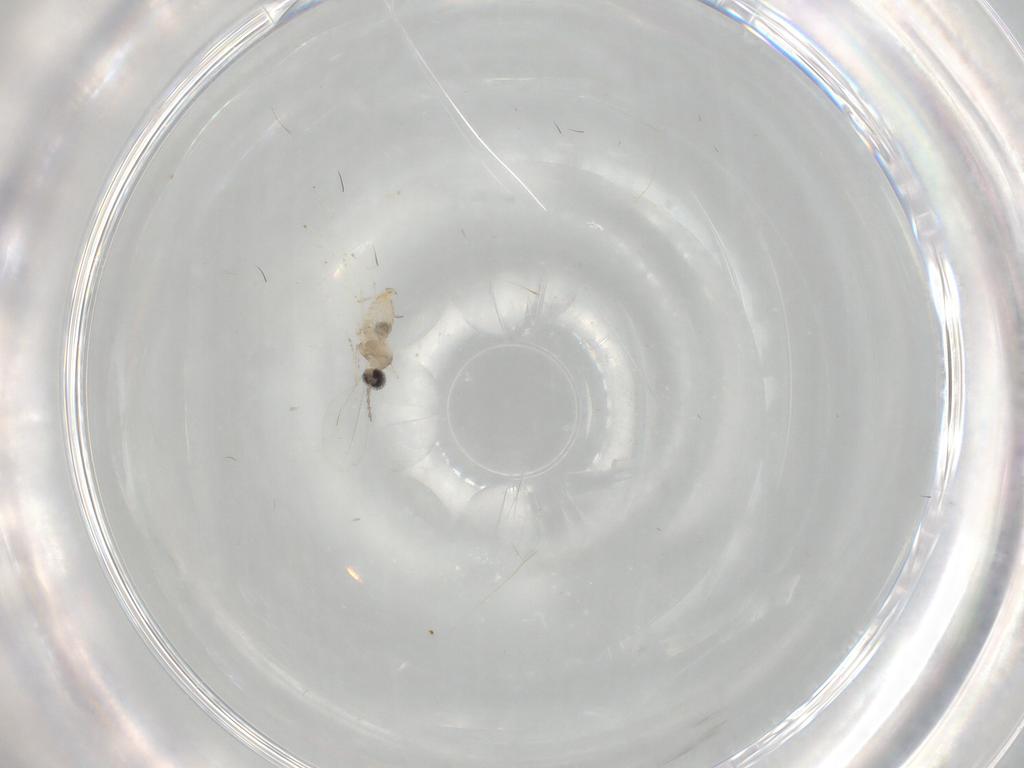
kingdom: Animalia
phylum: Arthropoda
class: Insecta
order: Diptera
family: Cecidomyiidae
